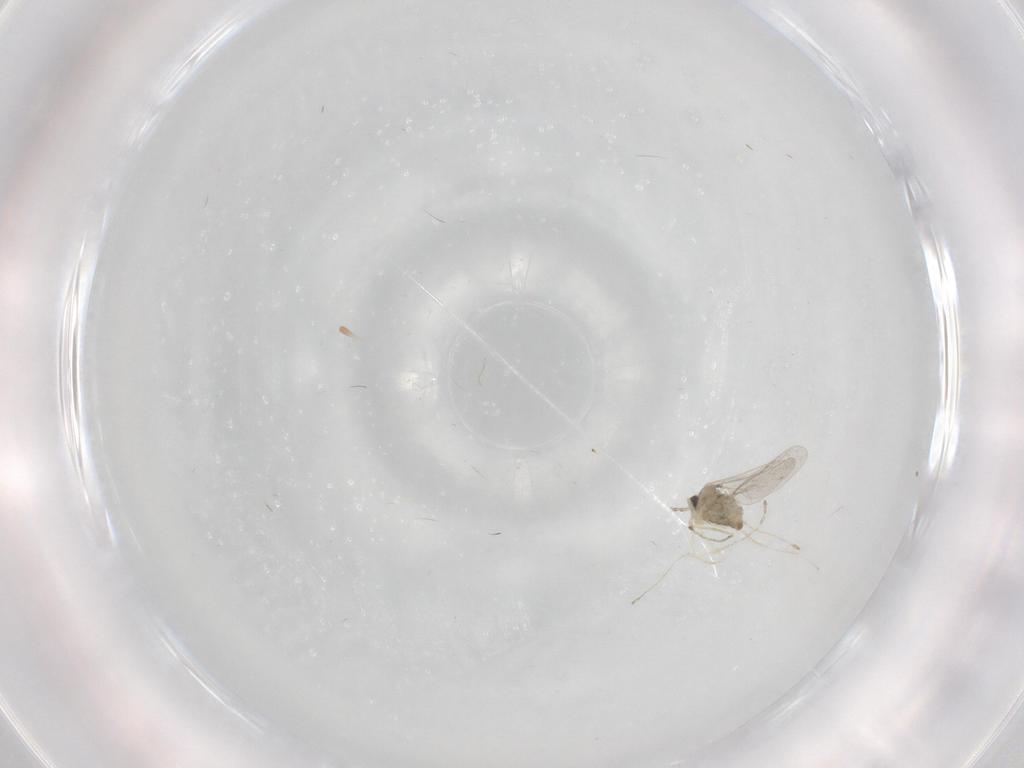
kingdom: Animalia
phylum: Arthropoda
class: Insecta
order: Diptera
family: Cecidomyiidae
